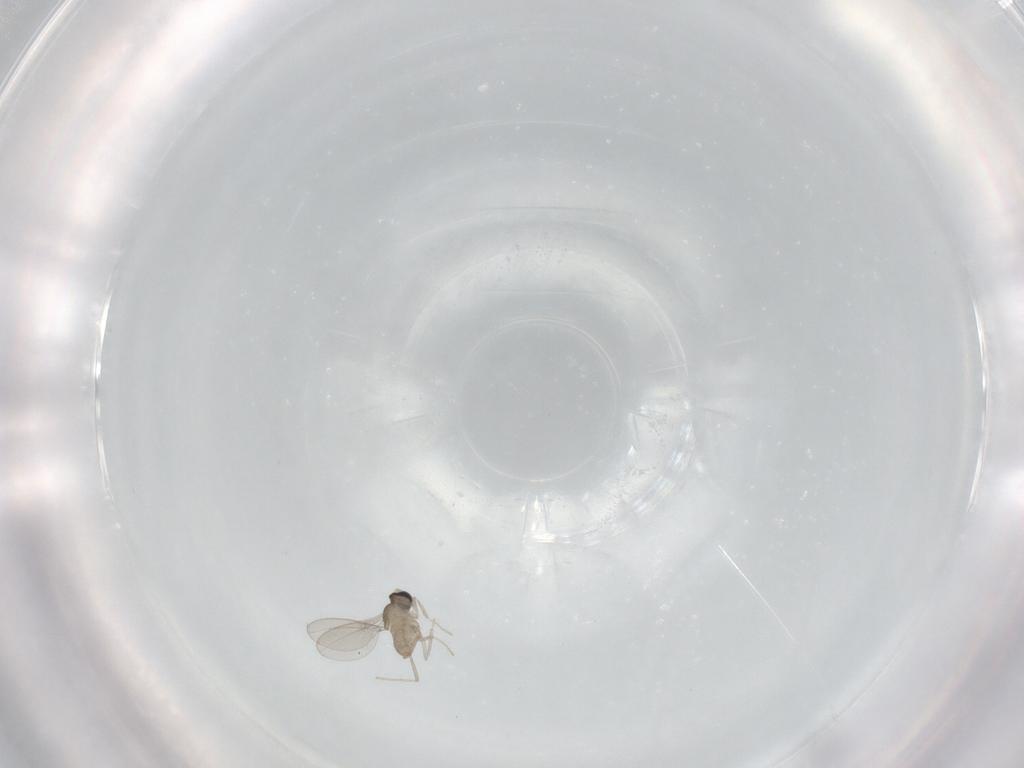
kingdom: Animalia
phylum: Arthropoda
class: Insecta
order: Diptera
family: Cecidomyiidae
